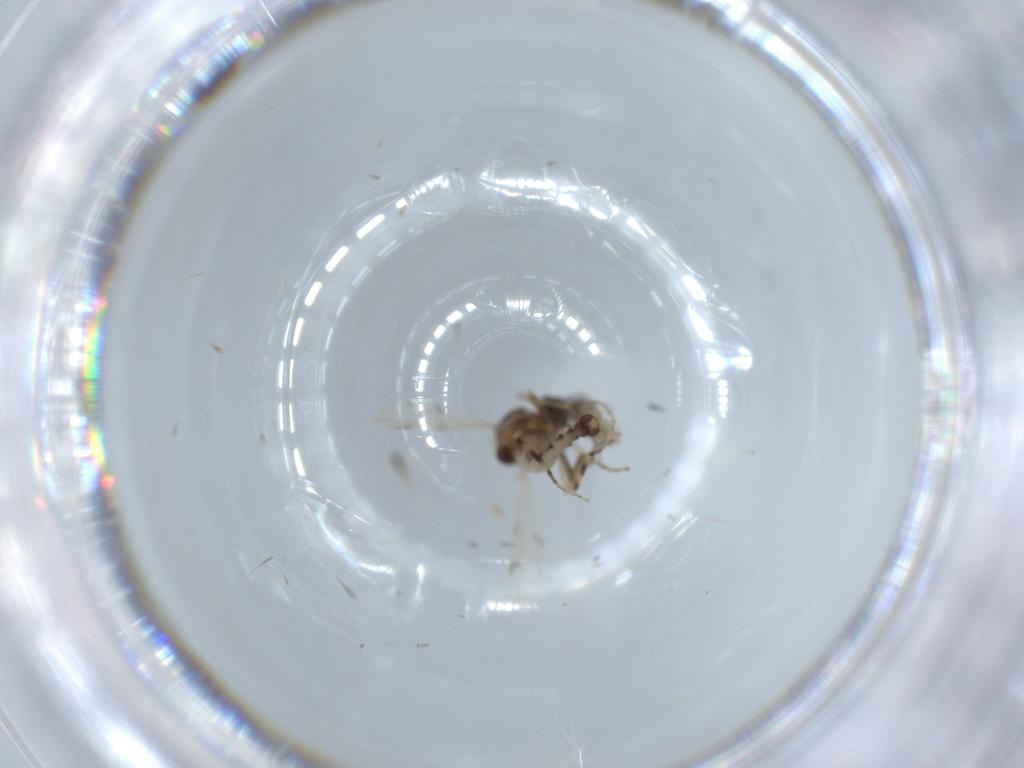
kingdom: Animalia
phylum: Arthropoda
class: Insecta
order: Diptera
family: Ceratopogonidae
